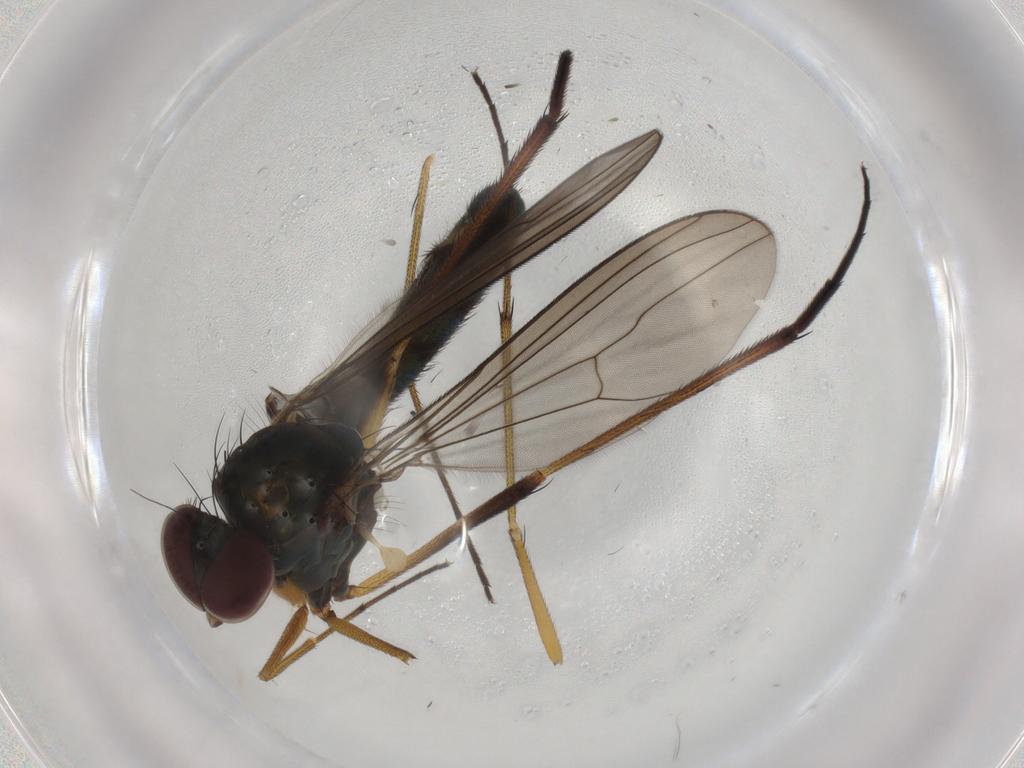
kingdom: Animalia
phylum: Arthropoda
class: Insecta
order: Diptera
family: Dolichopodidae
